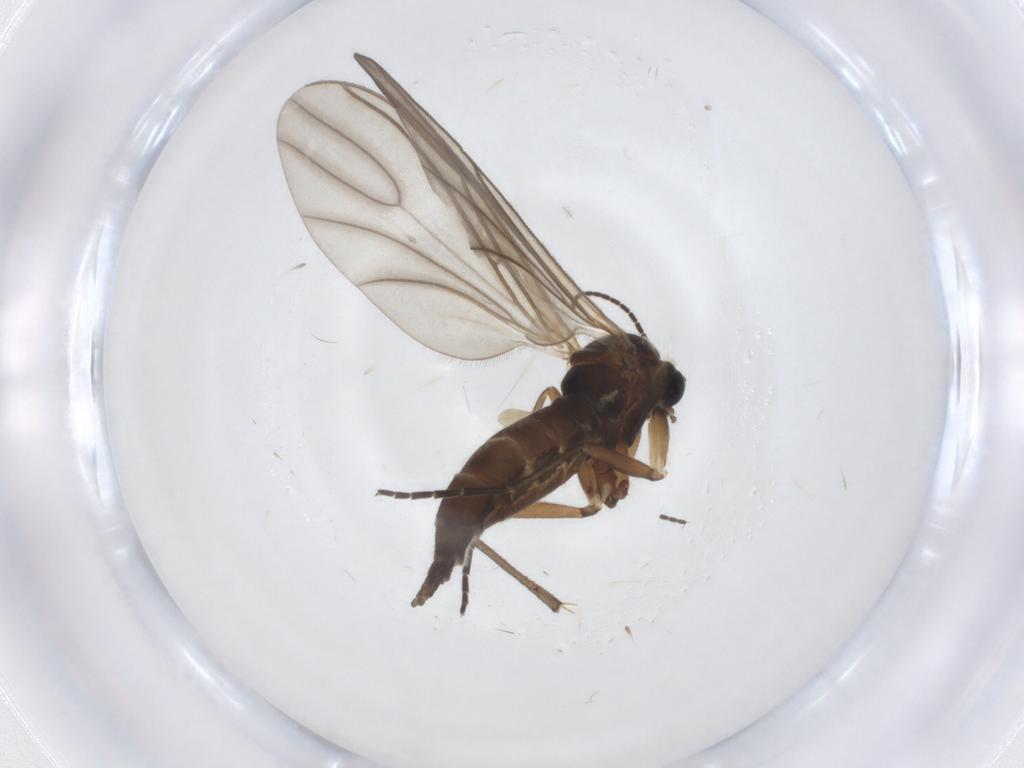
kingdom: Animalia
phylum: Arthropoda
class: Insecta
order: Diptera
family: Sciaridae
